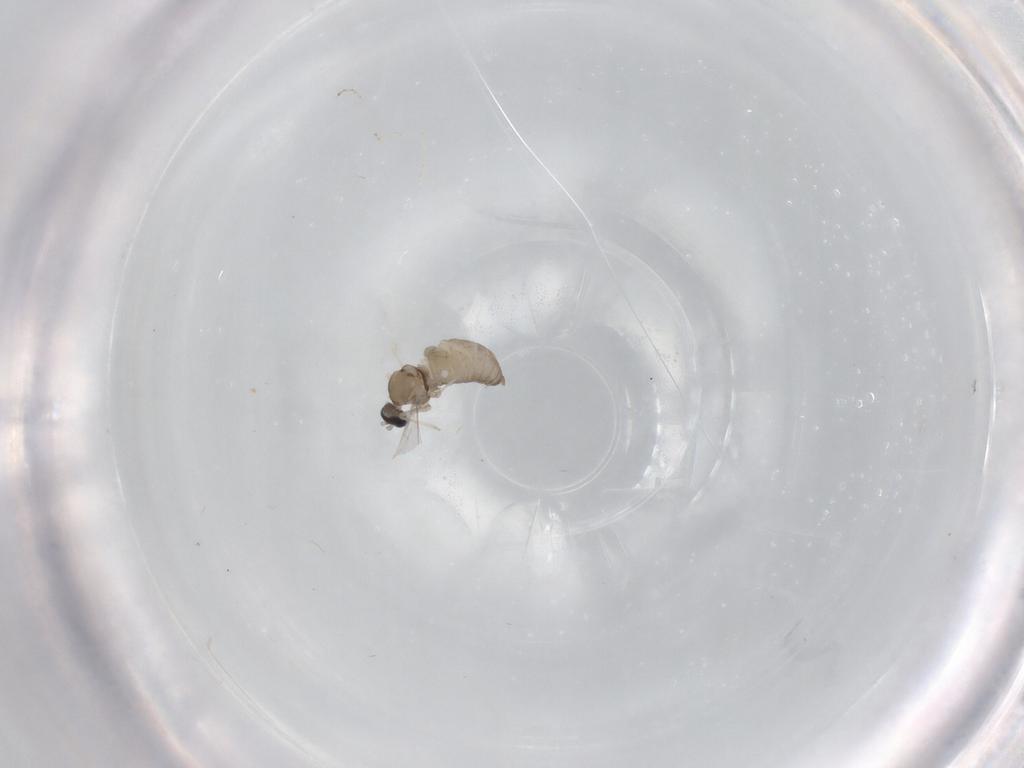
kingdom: Animalia
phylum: Arthropoda
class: Insecta
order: Diptera
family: Cecidomyiidae
